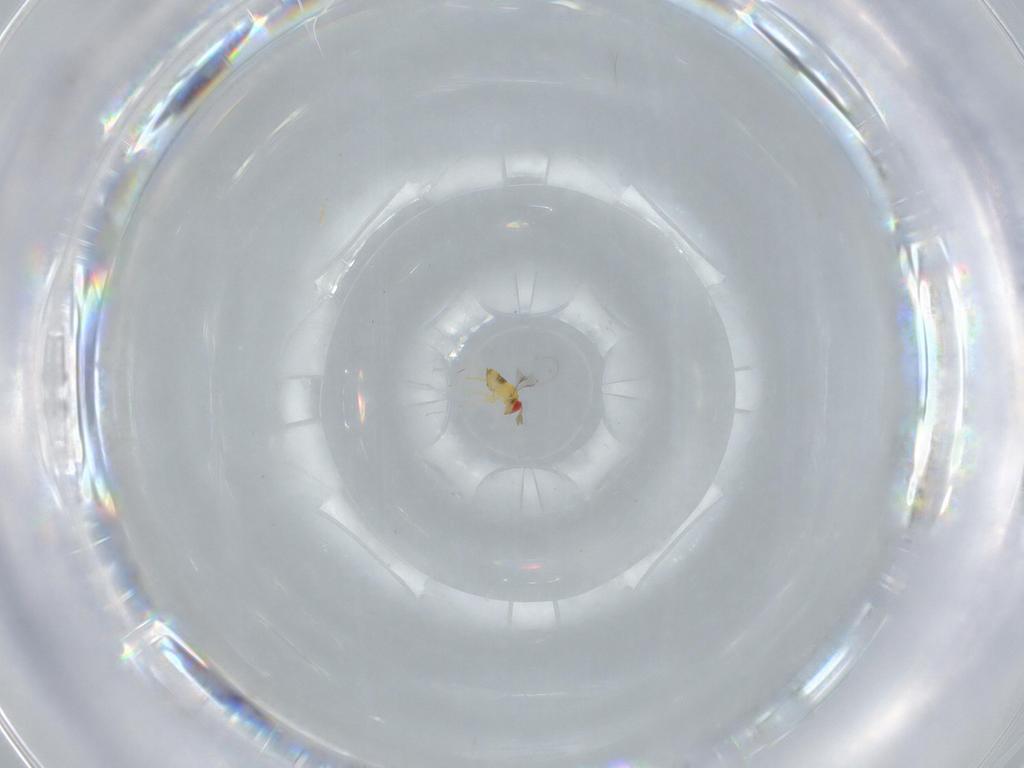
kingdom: Animalia
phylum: Arthropoda
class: Insecta
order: Hymenoptera
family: Trichogrammatidae
